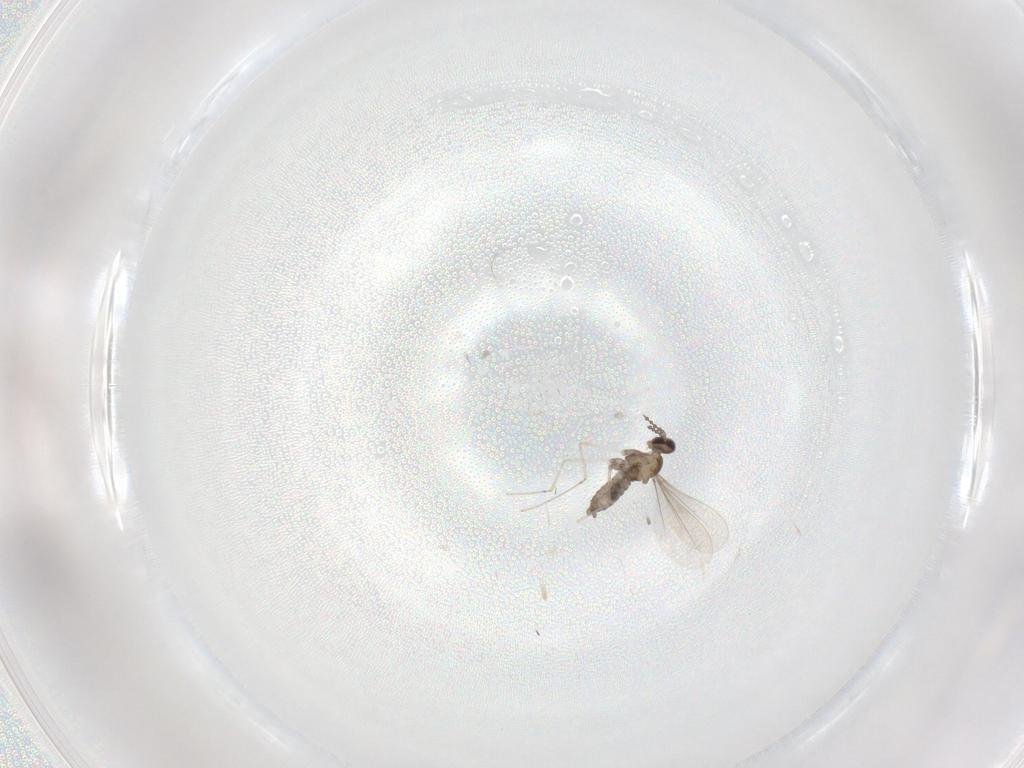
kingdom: Animalia
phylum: Arthropoda
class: Insecta
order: Diptera
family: Cecidomyiidae
